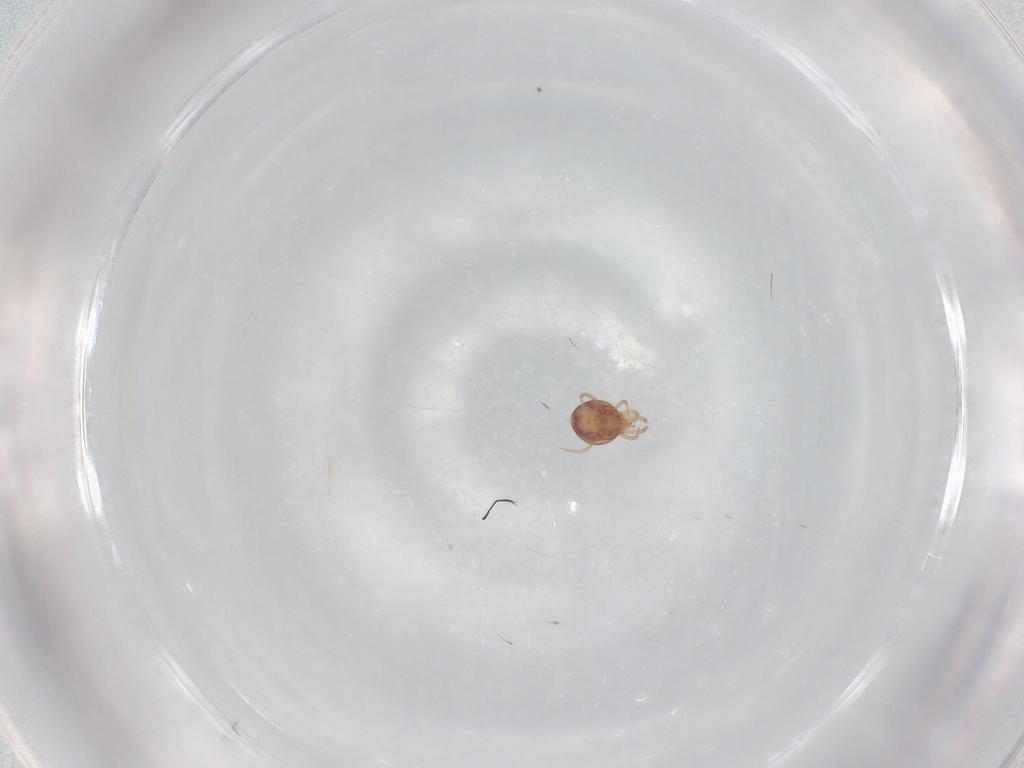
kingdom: Animalia
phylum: Arthropoda
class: Arachnida
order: Mesostigmata
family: Phytoseiidae
